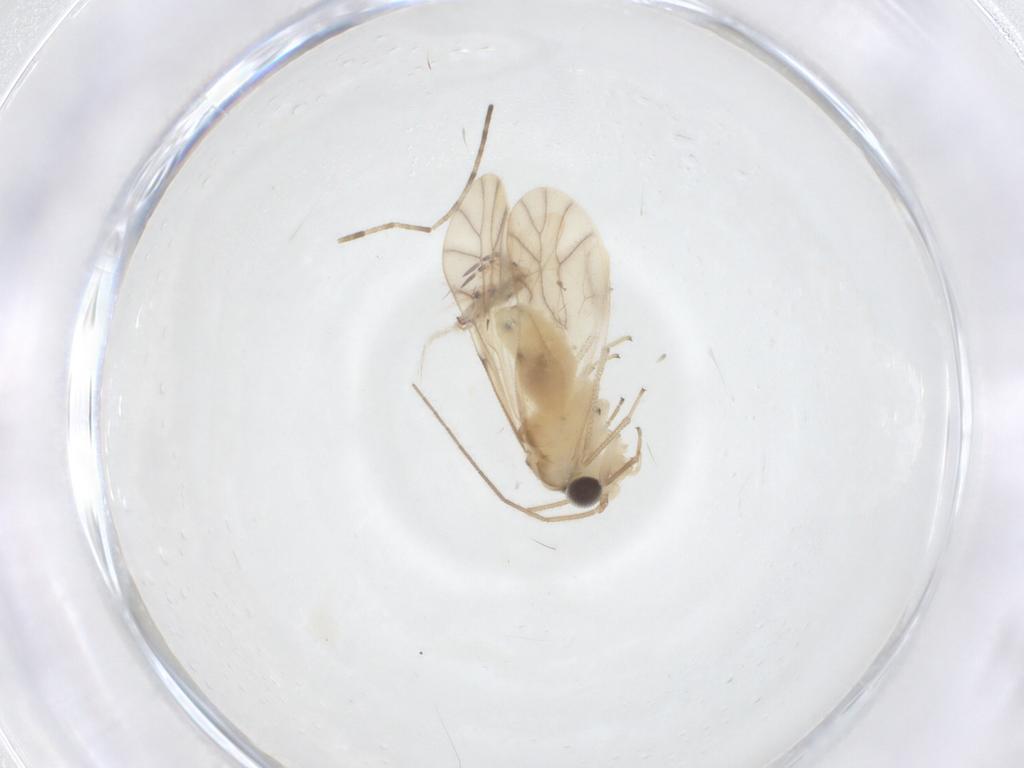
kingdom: Animalia
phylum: Arthropoda
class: Insecta
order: Psocodea
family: Caeciliusidae
